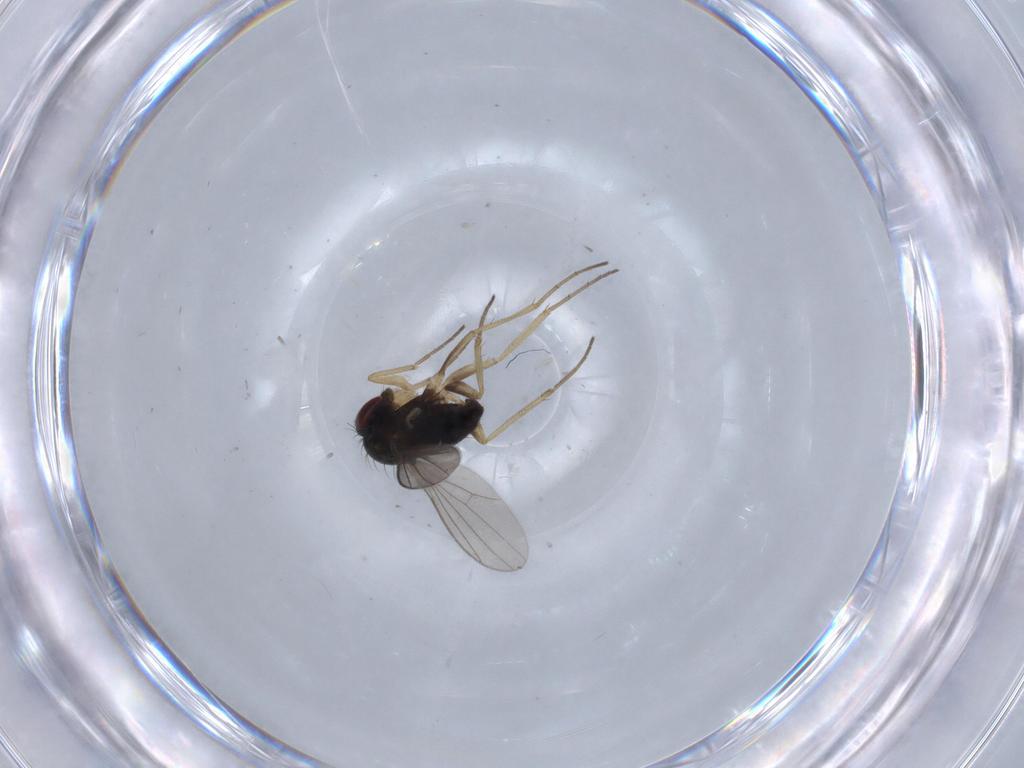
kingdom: Animalia
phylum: Arthropoda
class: Insecta
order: Diptera
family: Dolichopodidae
